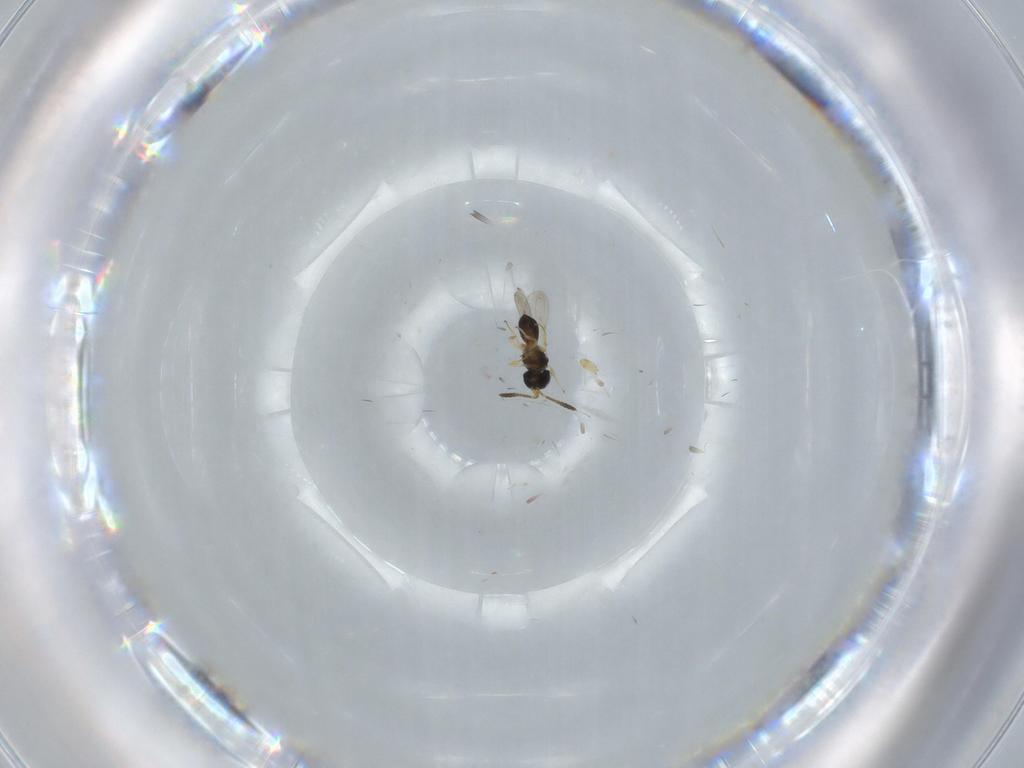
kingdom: Animalia
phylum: Arthropoda
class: Insecta
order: Hymenoptera
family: Scelionidae
